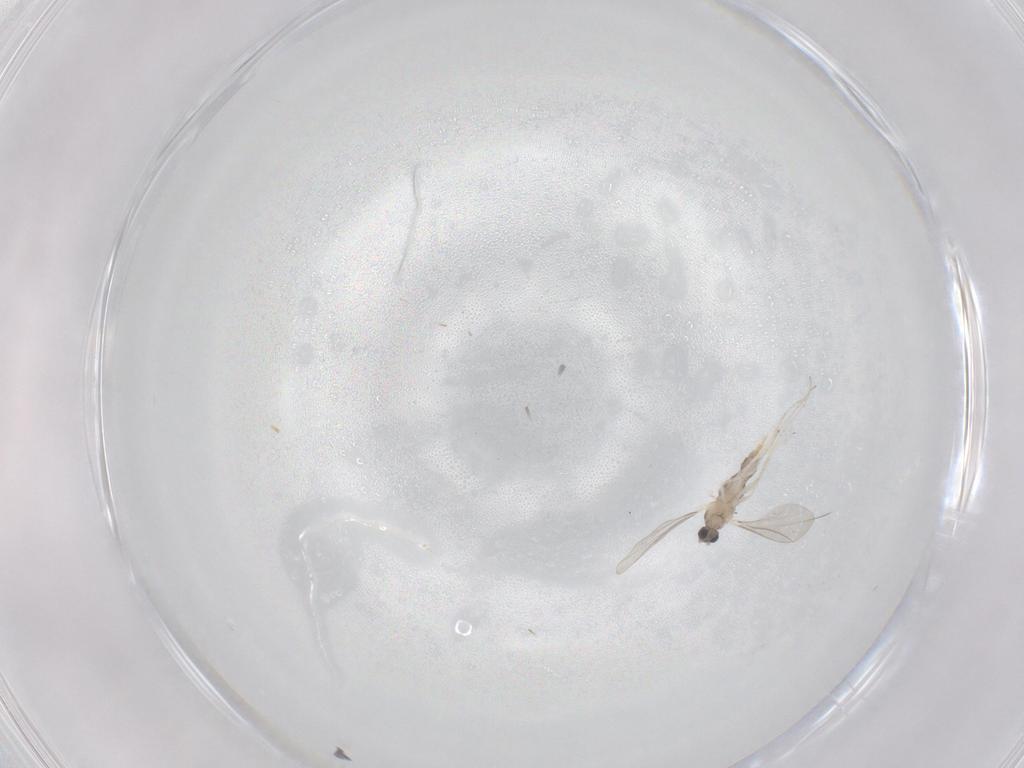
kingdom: Animalia
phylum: Arthropoda
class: Insecta
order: Diptera
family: Cecidomyiidae
